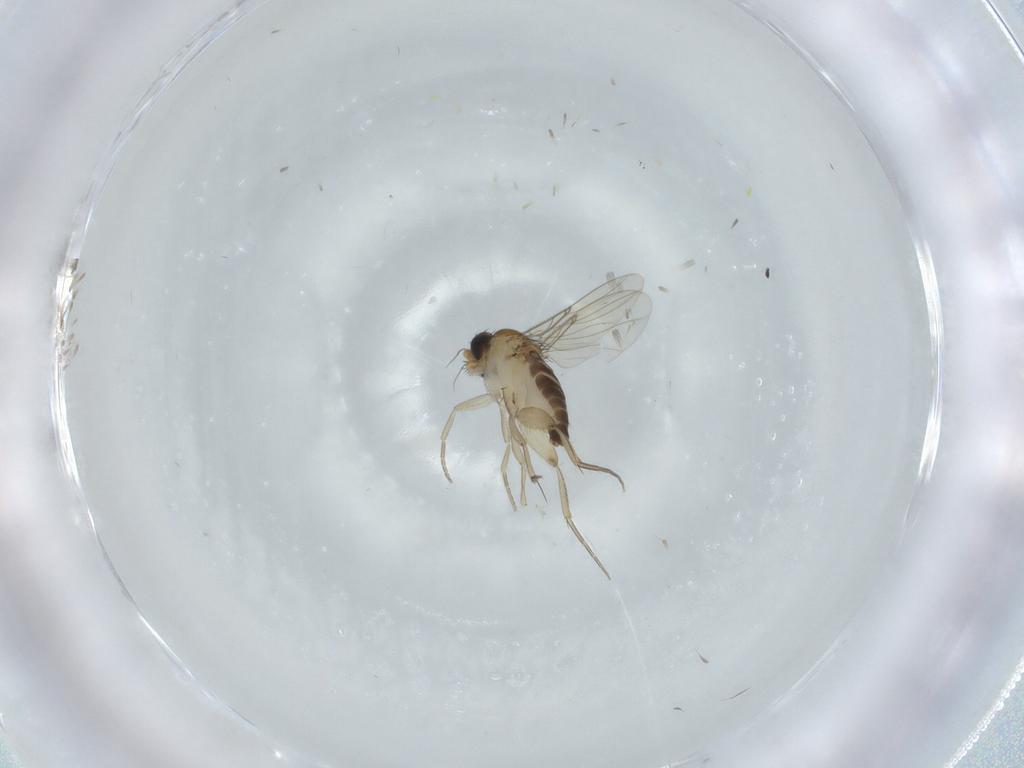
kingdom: Animalia
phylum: Arthropoda
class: Insecta
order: Diptera
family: Phoridae
